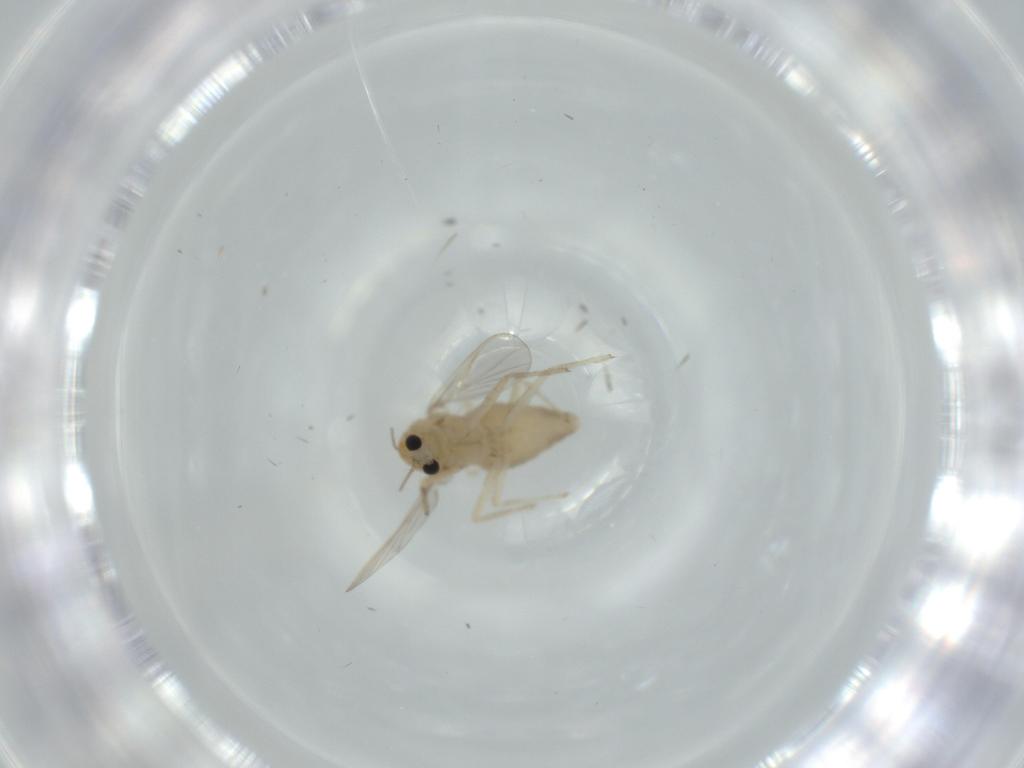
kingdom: Animalia
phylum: Arthropoda
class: Insecta
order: Diptera
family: Chironomidae
